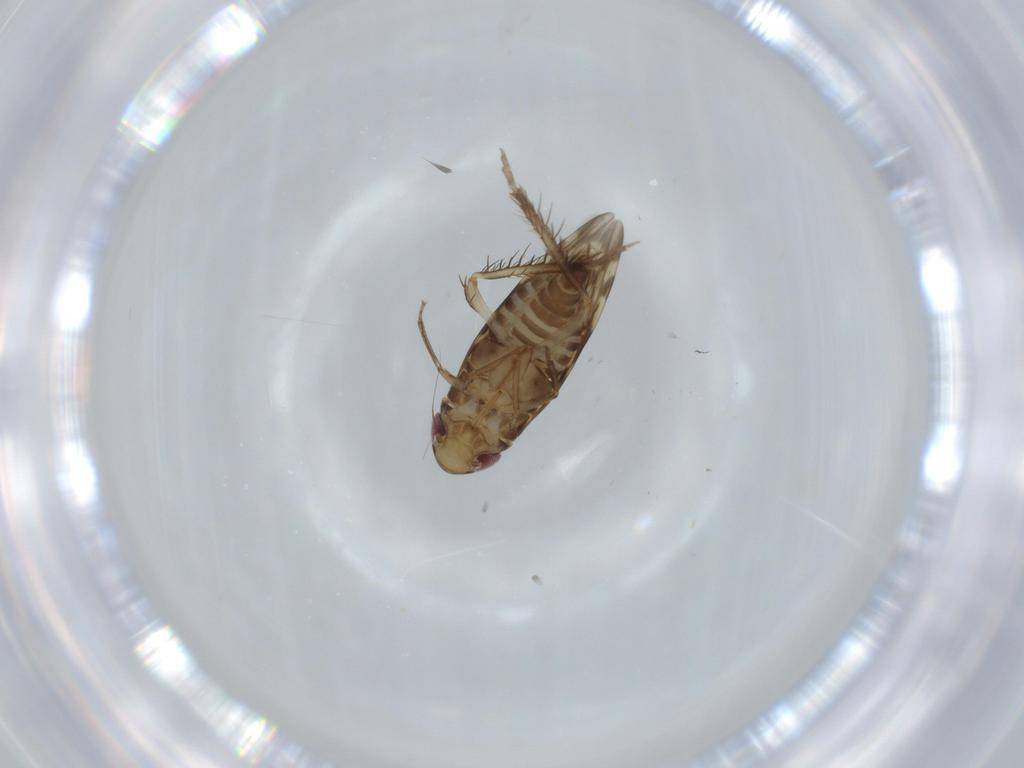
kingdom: Animalia
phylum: Arthropoda
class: Insecta
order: Hemiptera
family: Cicadellidae
